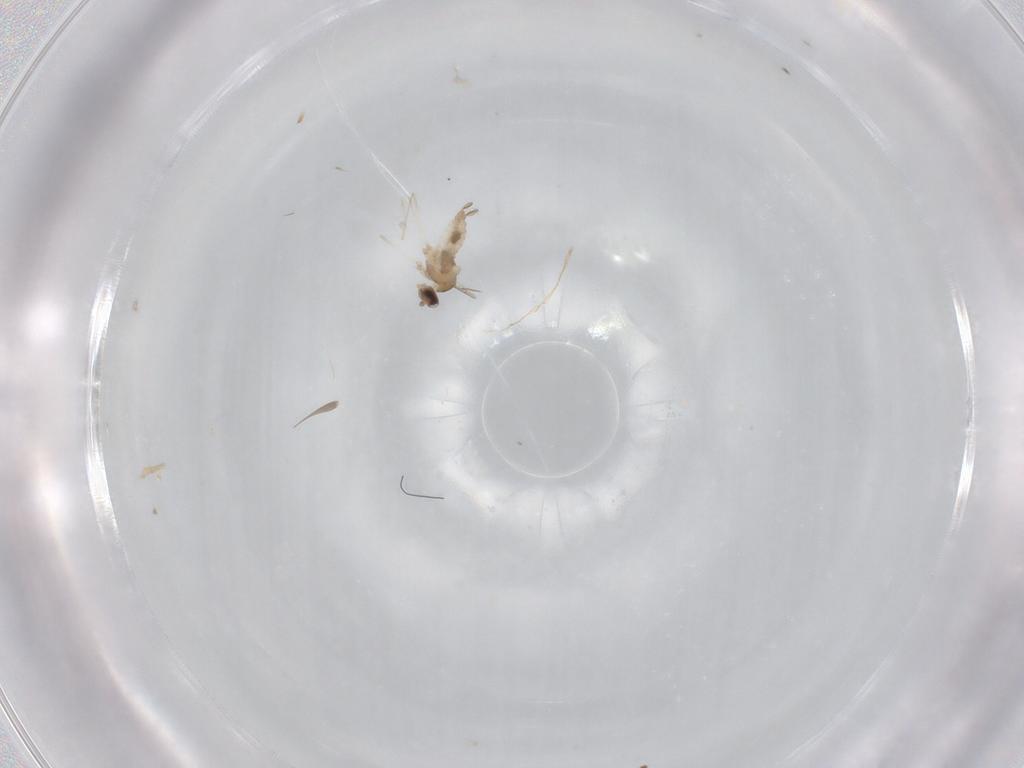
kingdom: Animalia
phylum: Arthropoda
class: Insecta
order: Diptera
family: Cecidomyiidae
